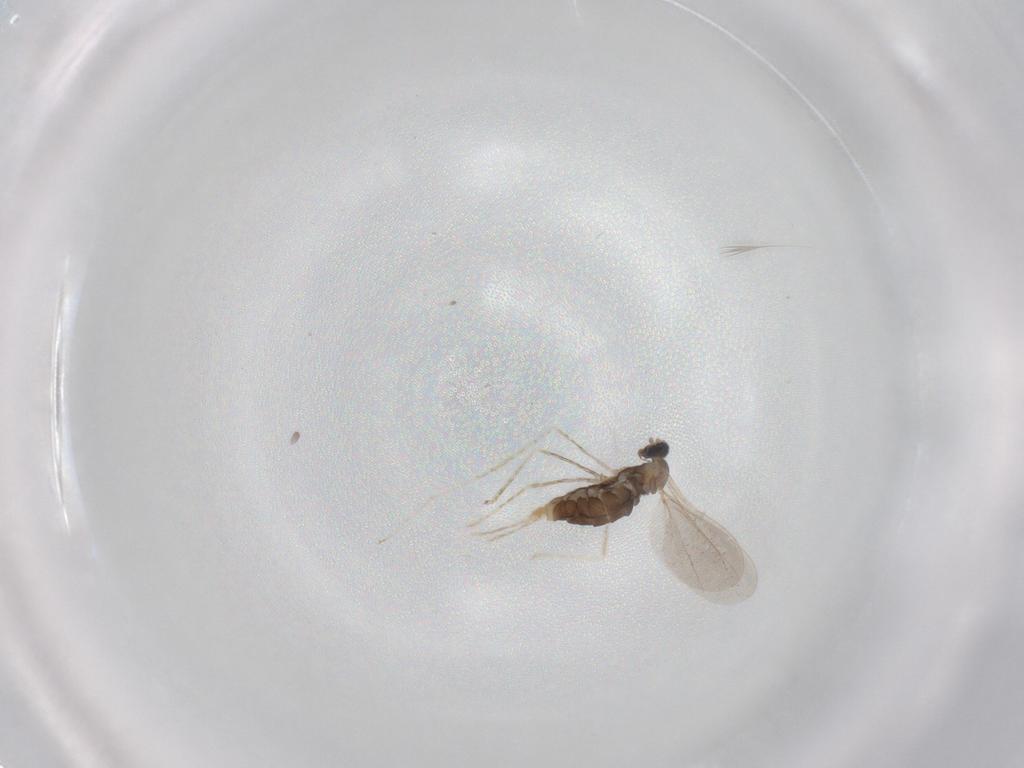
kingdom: Animalia
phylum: Arthropoda
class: Insecta
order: Diptera
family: Cecidomyiidae
